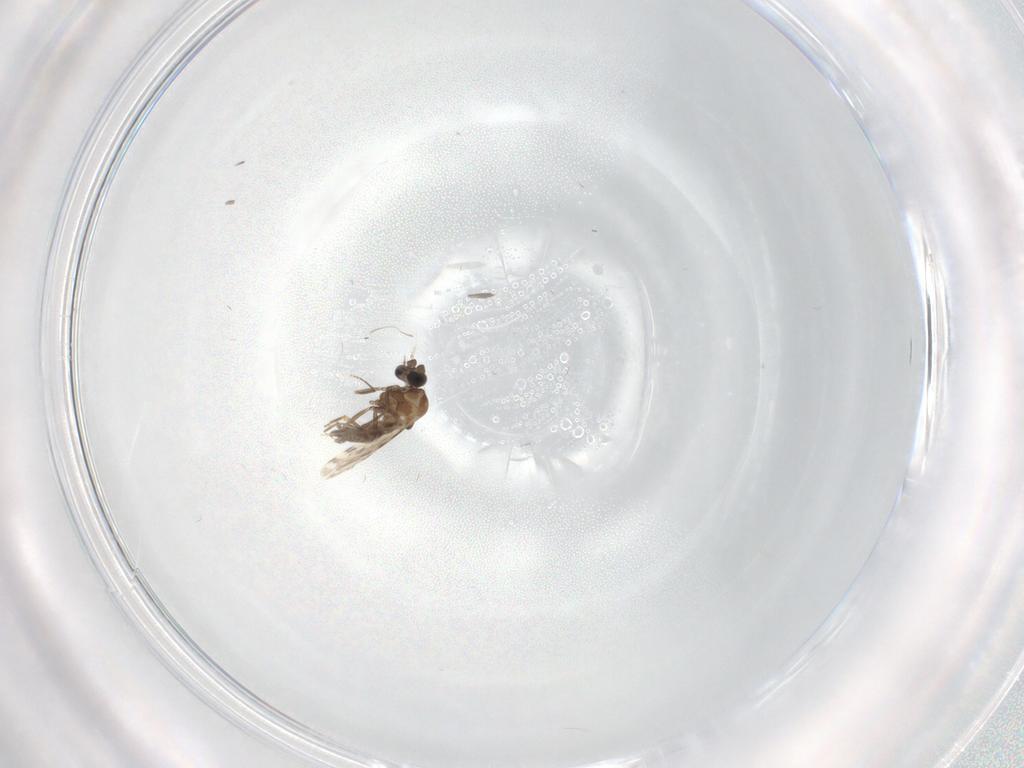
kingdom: Animalia
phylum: Arthropoda
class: Insecta
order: Diptera
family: Ceratopogonidae
